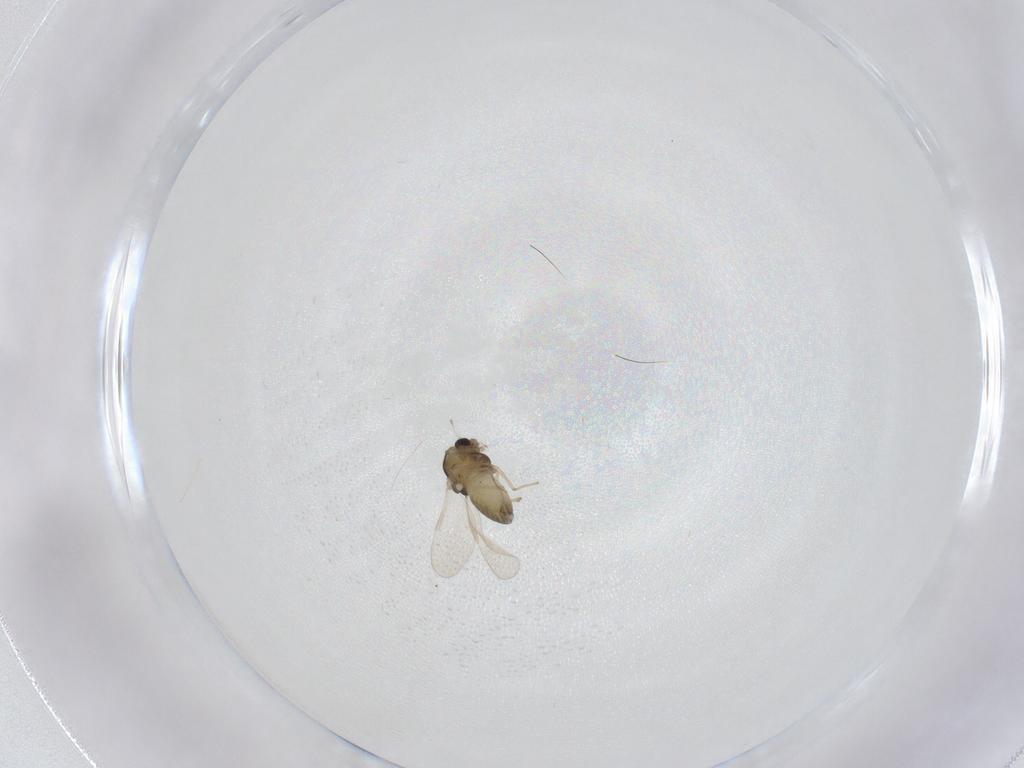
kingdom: Animalia
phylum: Arthropoda
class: Insecta
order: Diptera
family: Chironomidae
